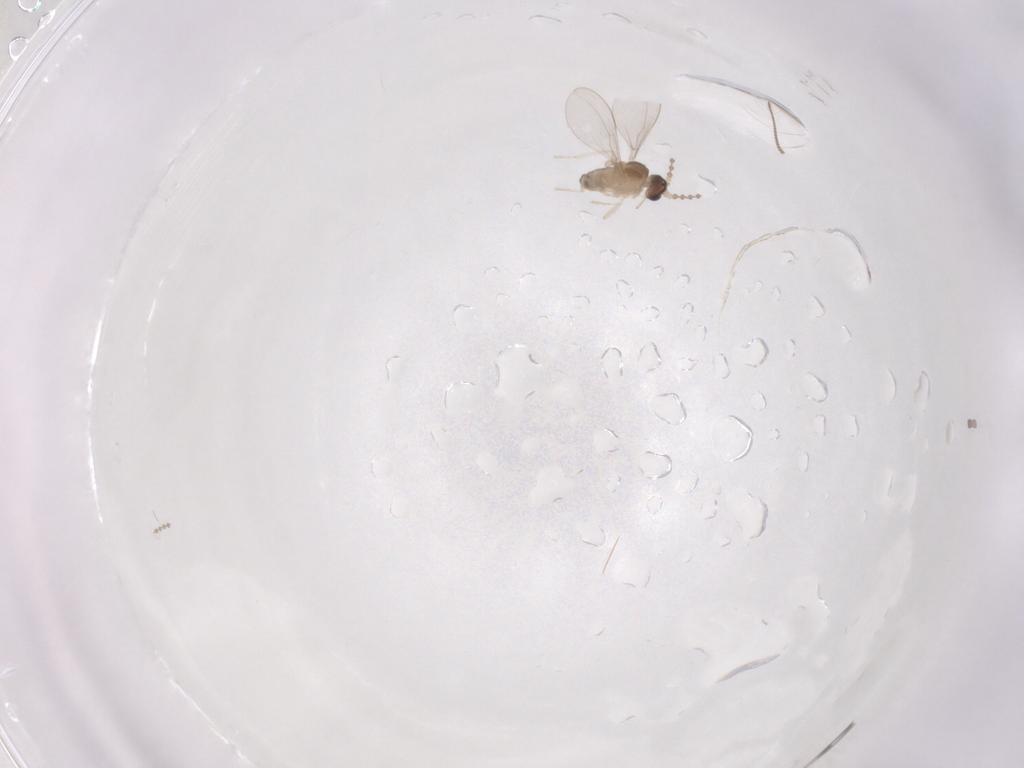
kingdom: Animalia
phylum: Arthropoda
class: Insecta
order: Diptera
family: Cecidomyiidae
